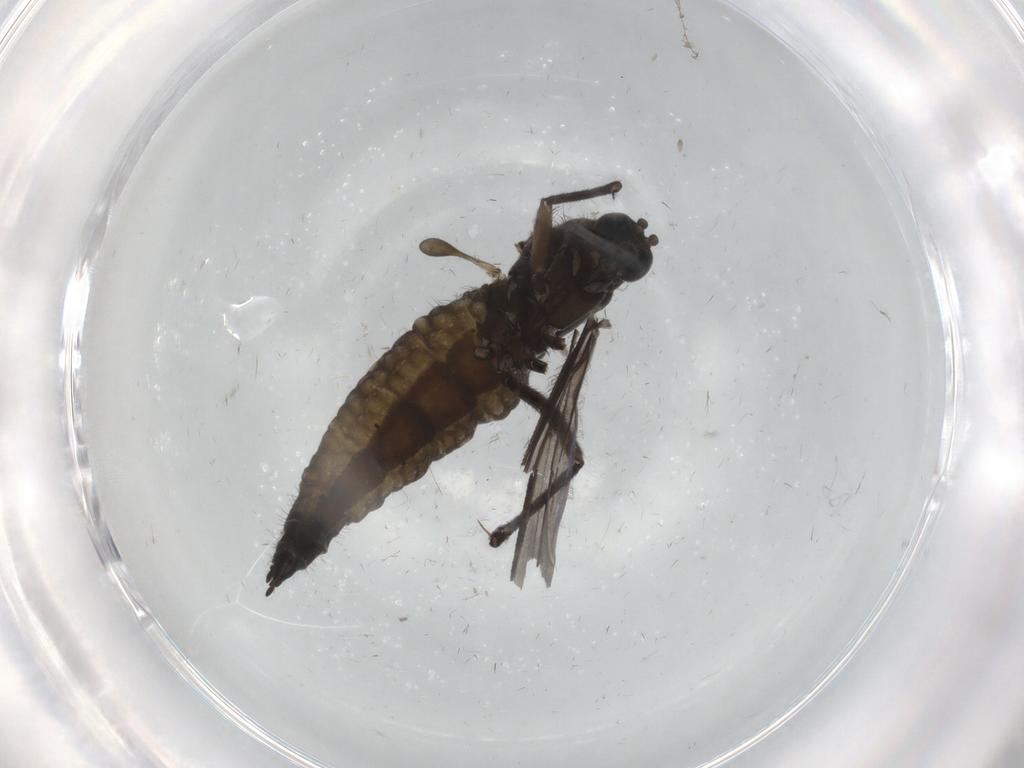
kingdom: Animalia
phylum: Arthropoda
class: Insecta
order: Diptera
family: Sciaridae
